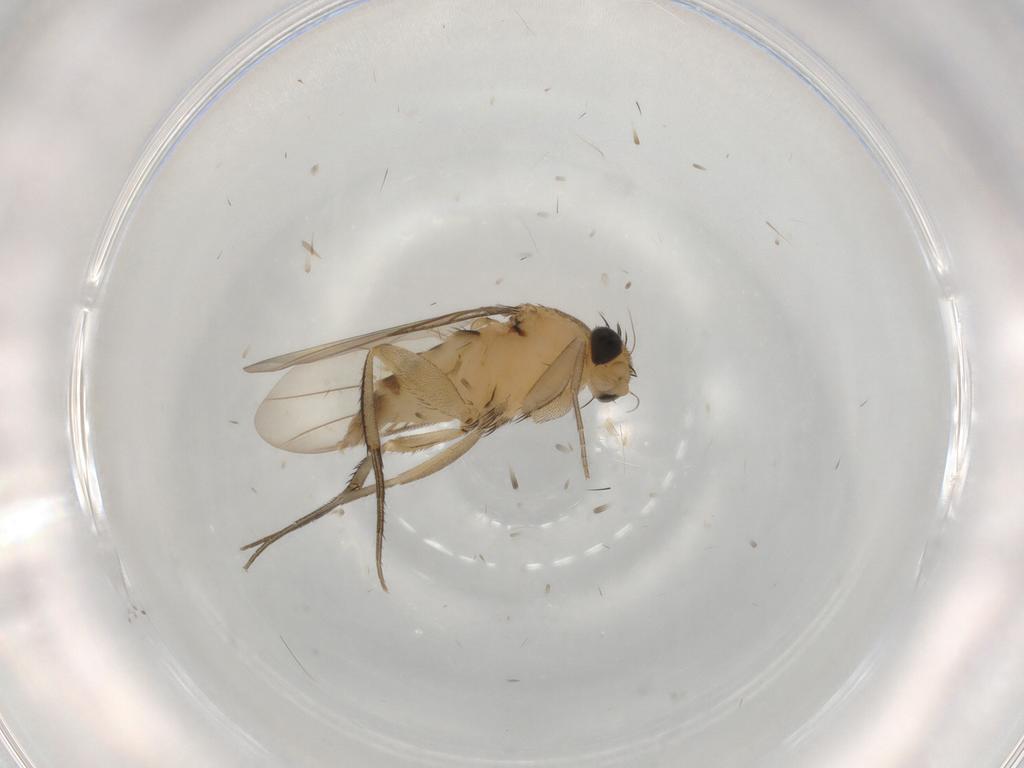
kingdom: Animalia
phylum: Arthropoda
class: Insecta
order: Diptera
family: Phoridae
